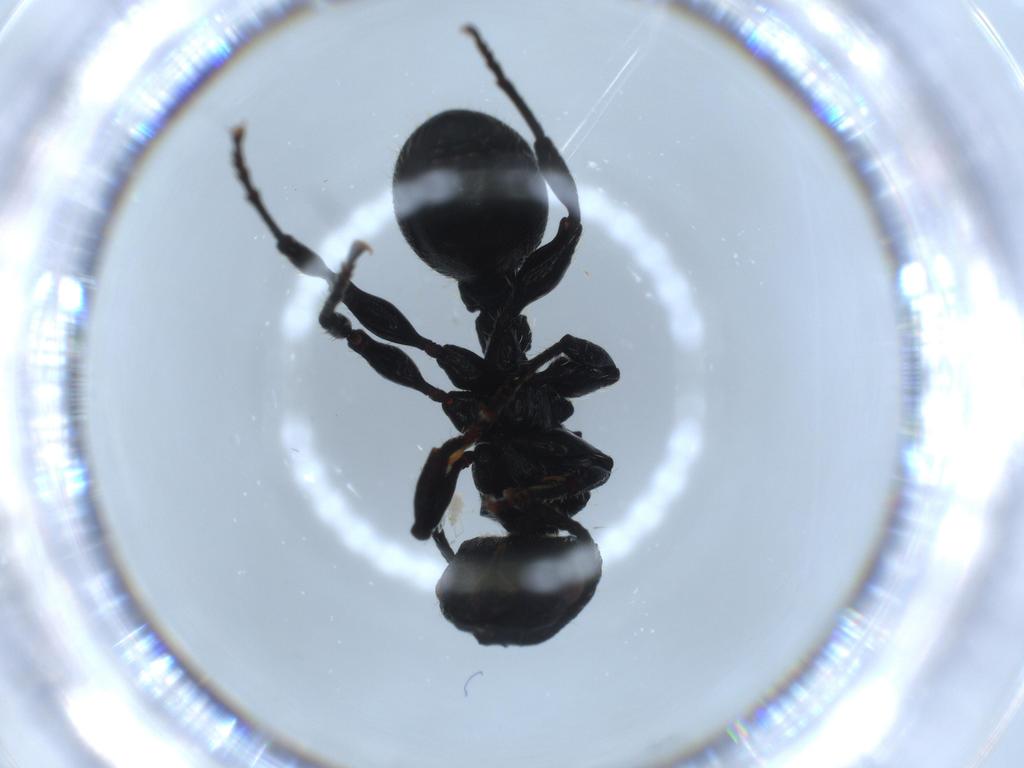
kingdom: Animalia
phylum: Arthropoda
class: Insecta
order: Hymenoptera
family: Formicidae
